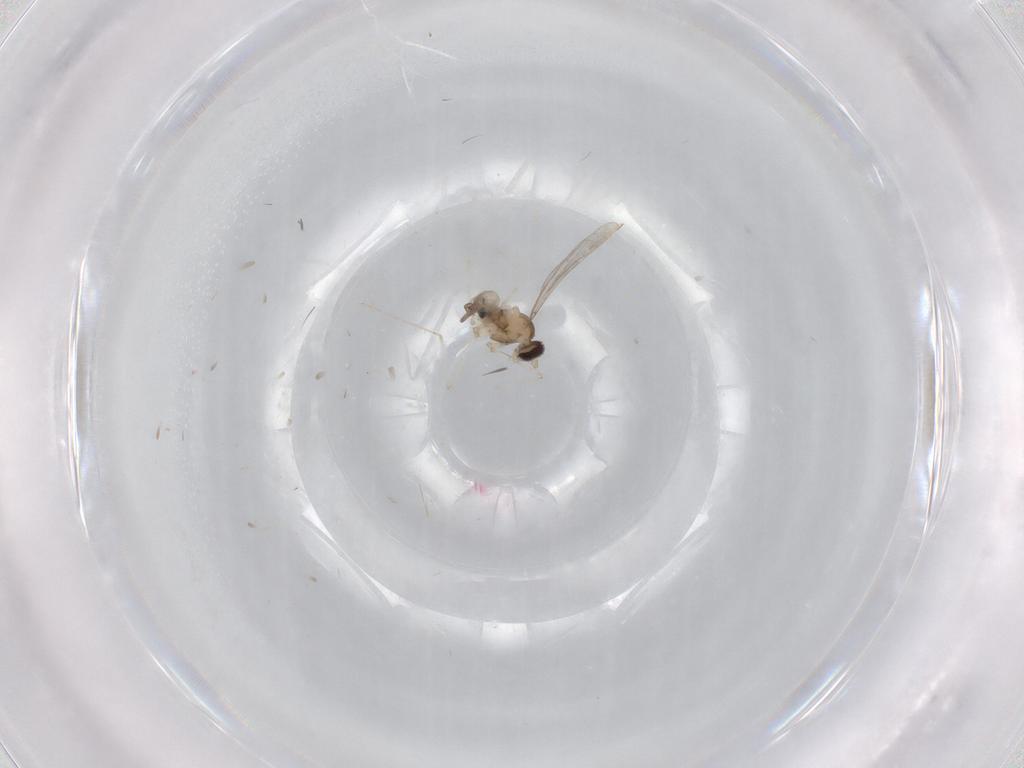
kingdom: Animalia
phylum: Arthropoda
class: Insecta
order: Diptera
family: Cecidomyiidae
